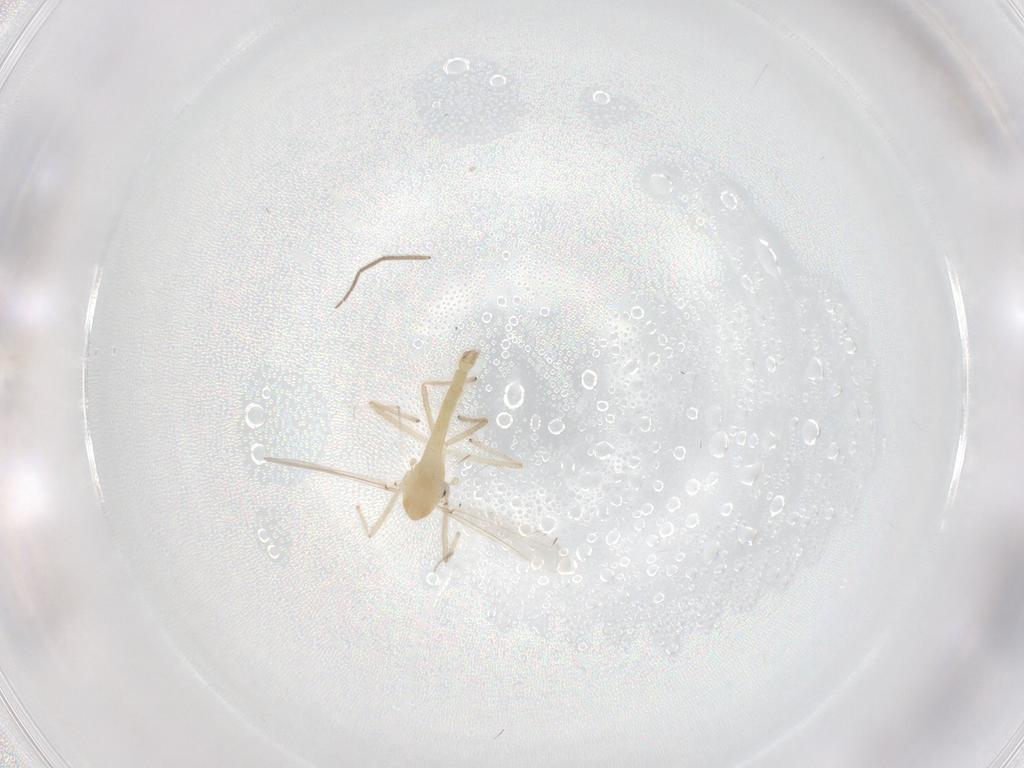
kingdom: Animalia
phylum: Arthropoda
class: Insecta
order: Diptera
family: Chironomidae
